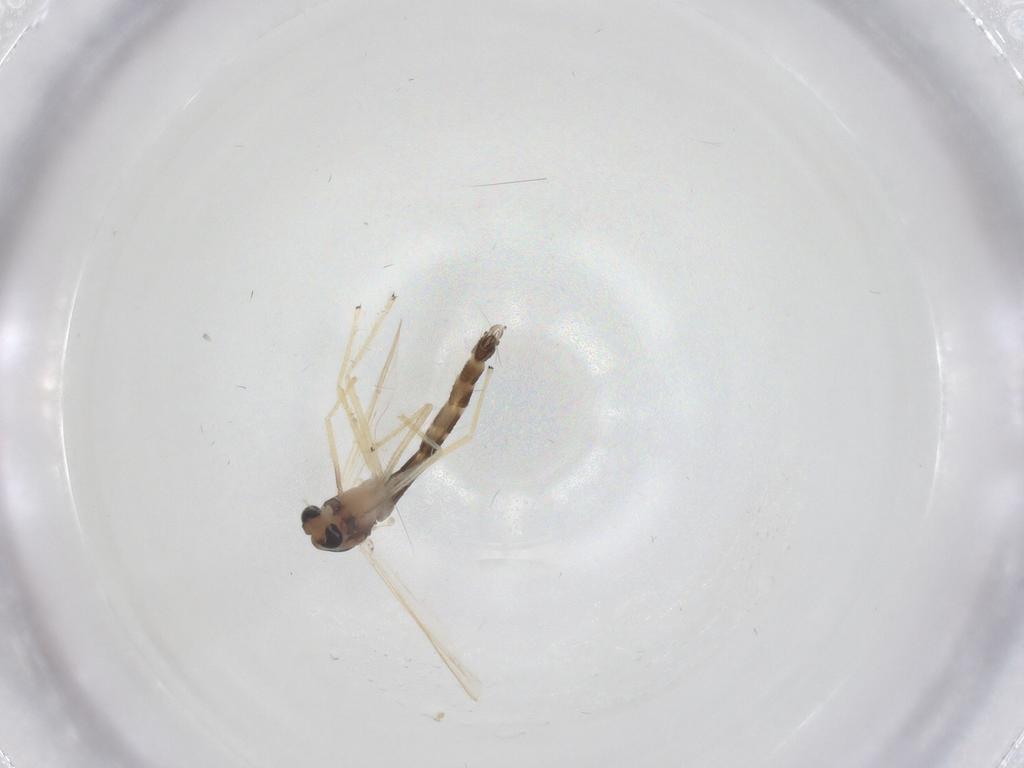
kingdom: Animalia
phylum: Arthropoda
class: Insecta
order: Diptera
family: Chironomidae
